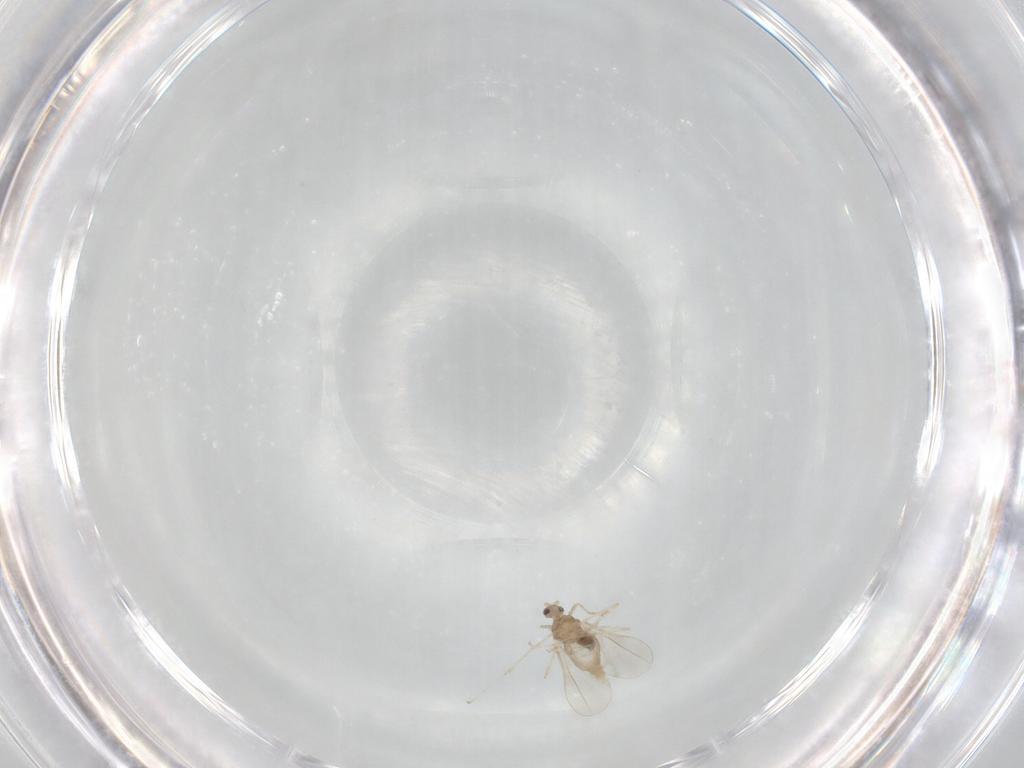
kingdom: Animalia
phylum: Arthropoda
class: Insecta
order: Diptera
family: Cecidomyiidae
